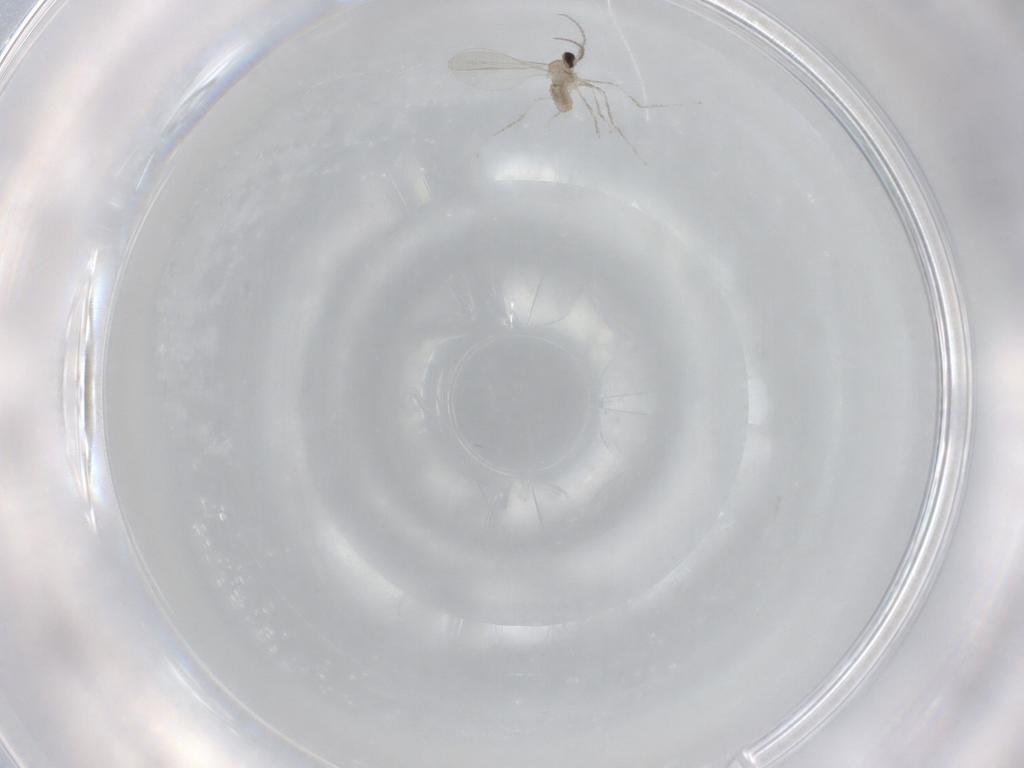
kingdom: Animalia
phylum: Arthropoda
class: Insecta
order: Diptera
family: Cecidomyiidae
